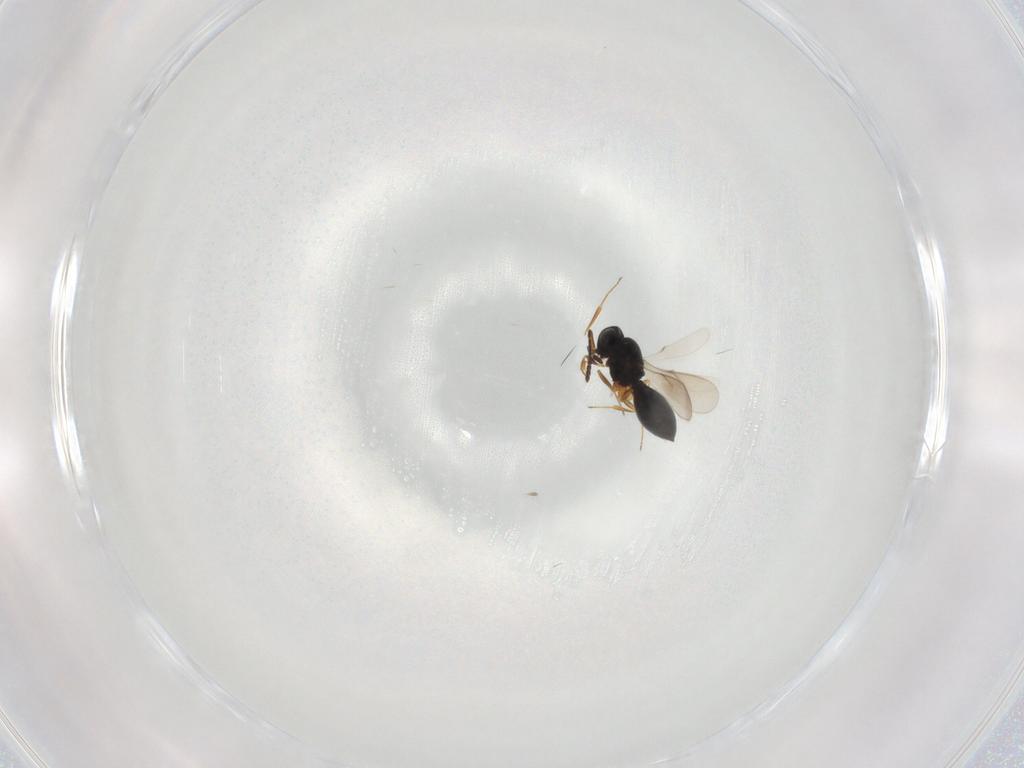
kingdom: Animalia
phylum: Arthropoda
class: Insecta
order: Hymenoptera
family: Scelionidae
